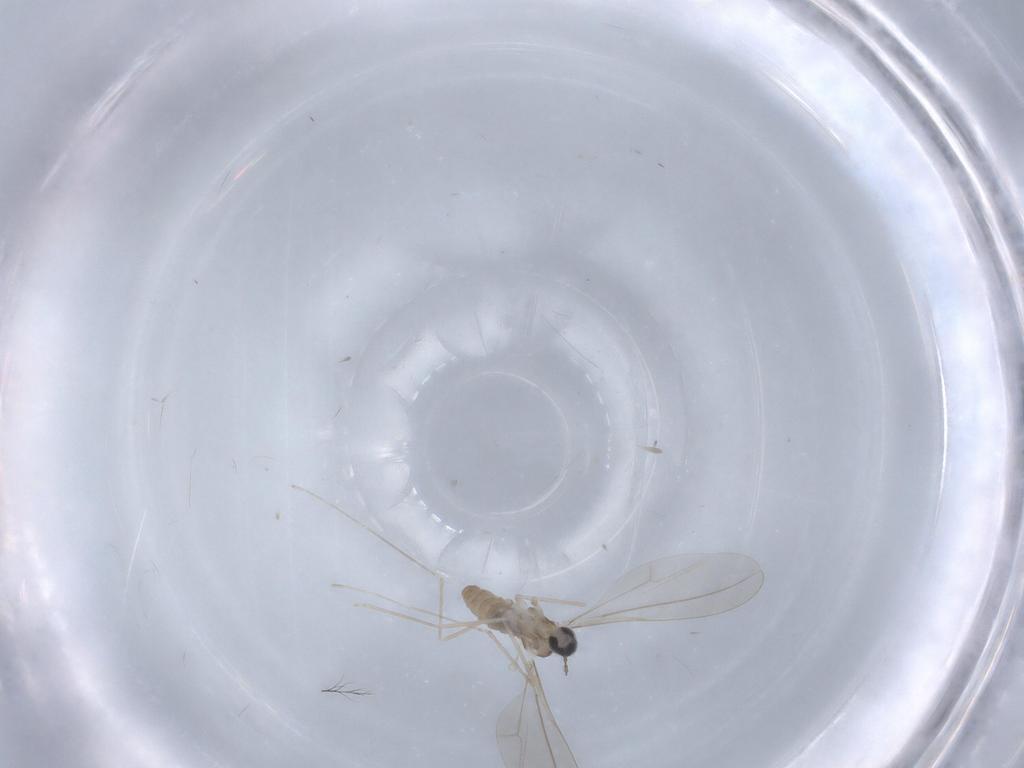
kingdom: Animalia
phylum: Arthropoda
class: Insecta
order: Diptera
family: Cecidomyiidae
